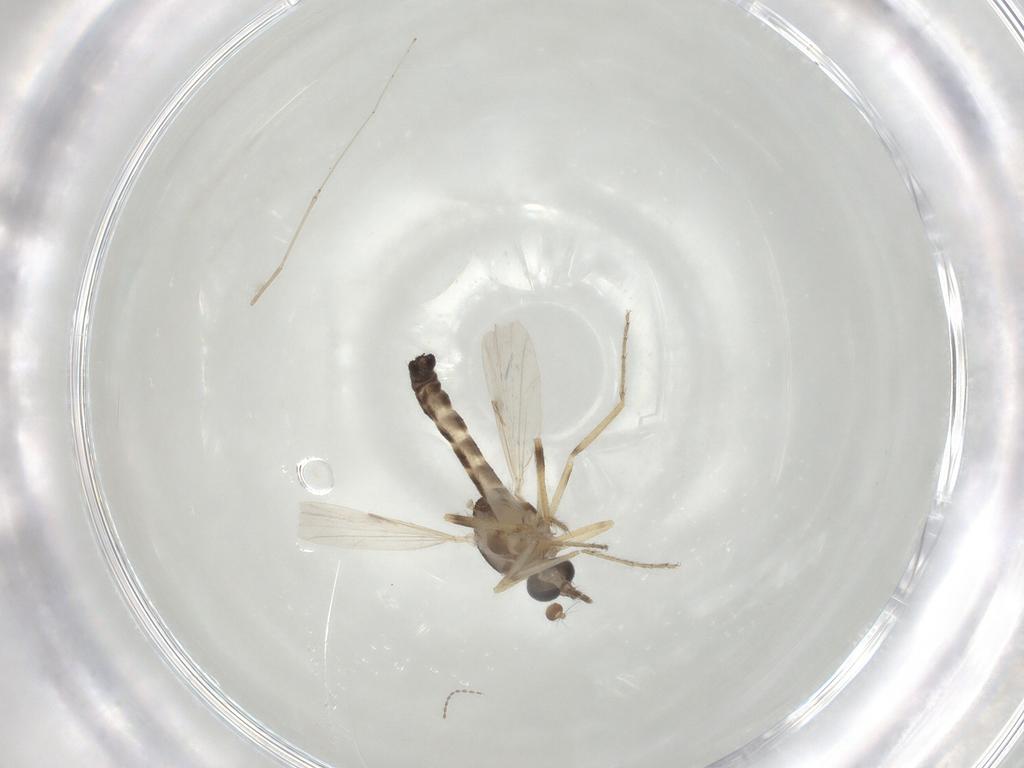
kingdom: Animalia
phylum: Arthropoda
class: Insecta
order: Diptera
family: Ceratopogonidae
